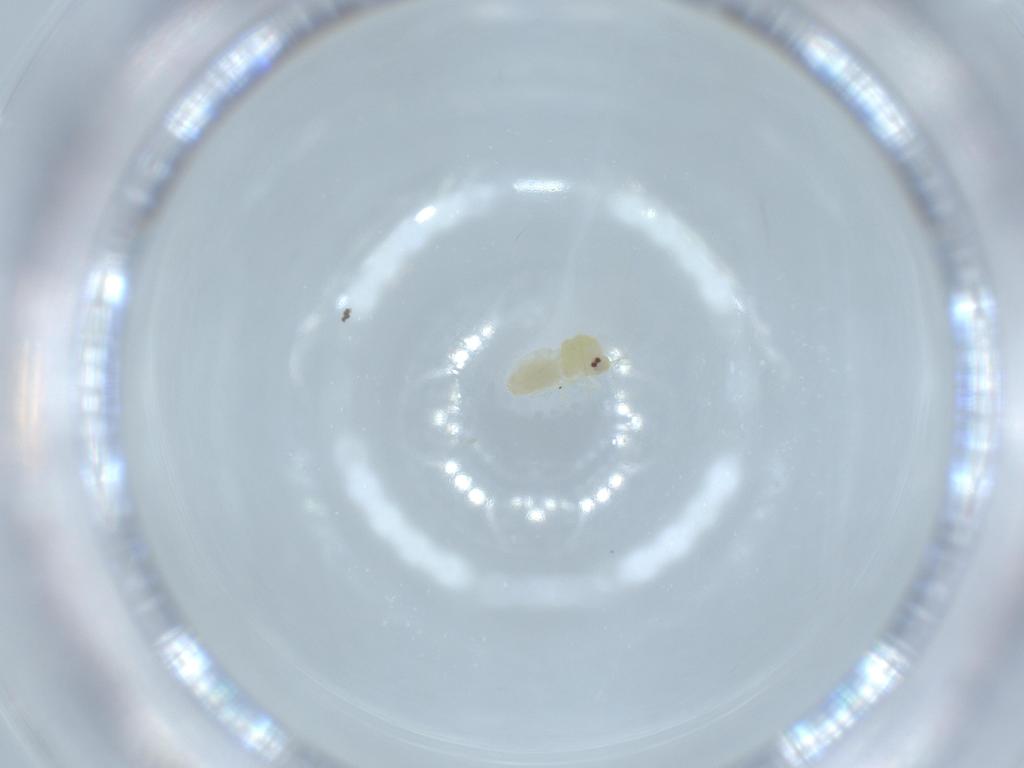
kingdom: Animalia
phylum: Arthropoda
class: Insecta
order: Hemiptera
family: Aleyrodidae
